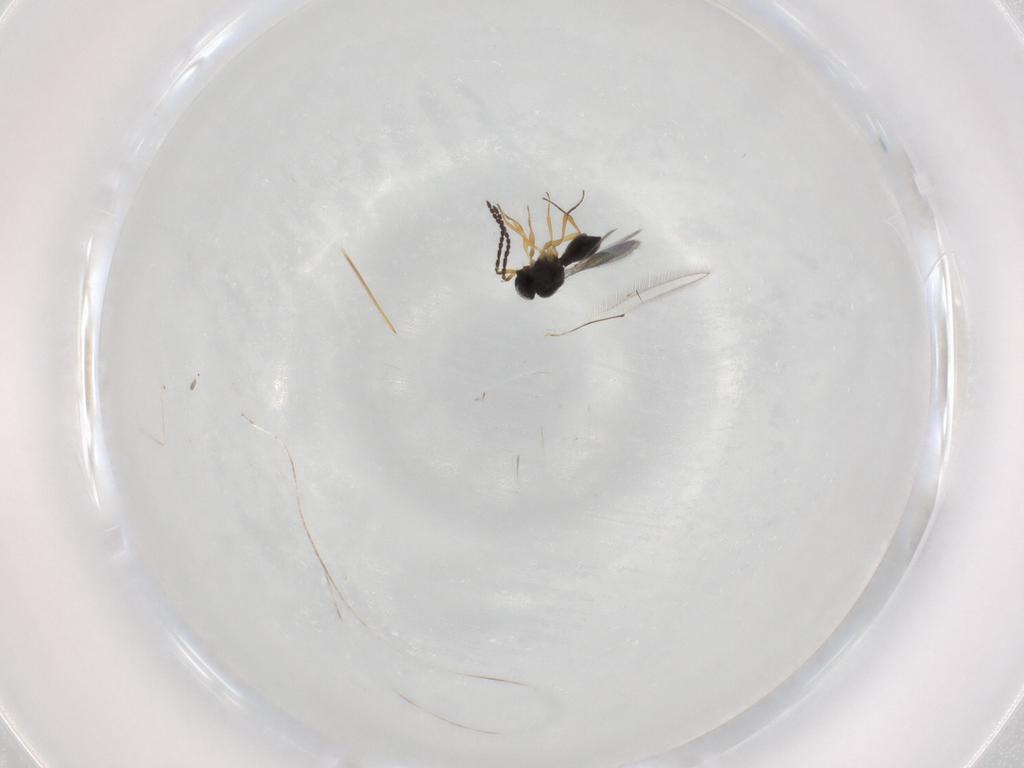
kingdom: Animalia
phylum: Arthropoda
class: Insecta
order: Hymenoptera
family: Scelionidae
